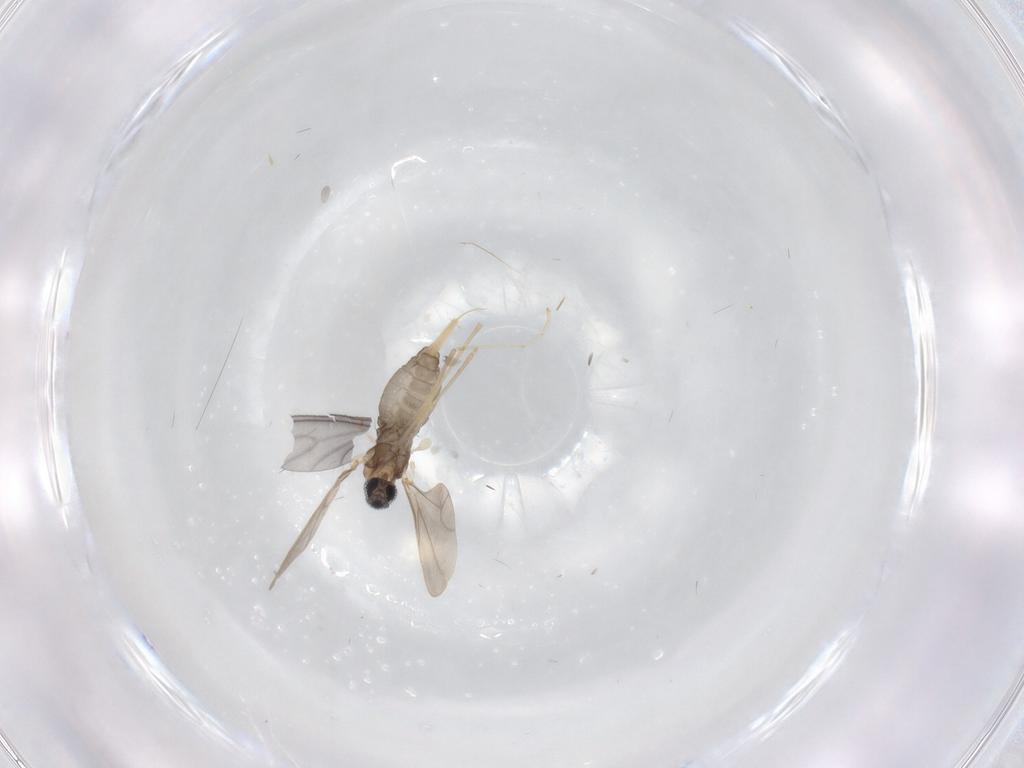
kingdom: Animalia
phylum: Arthropoda
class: Insecta
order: Diptera
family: Cecidomyiidae
